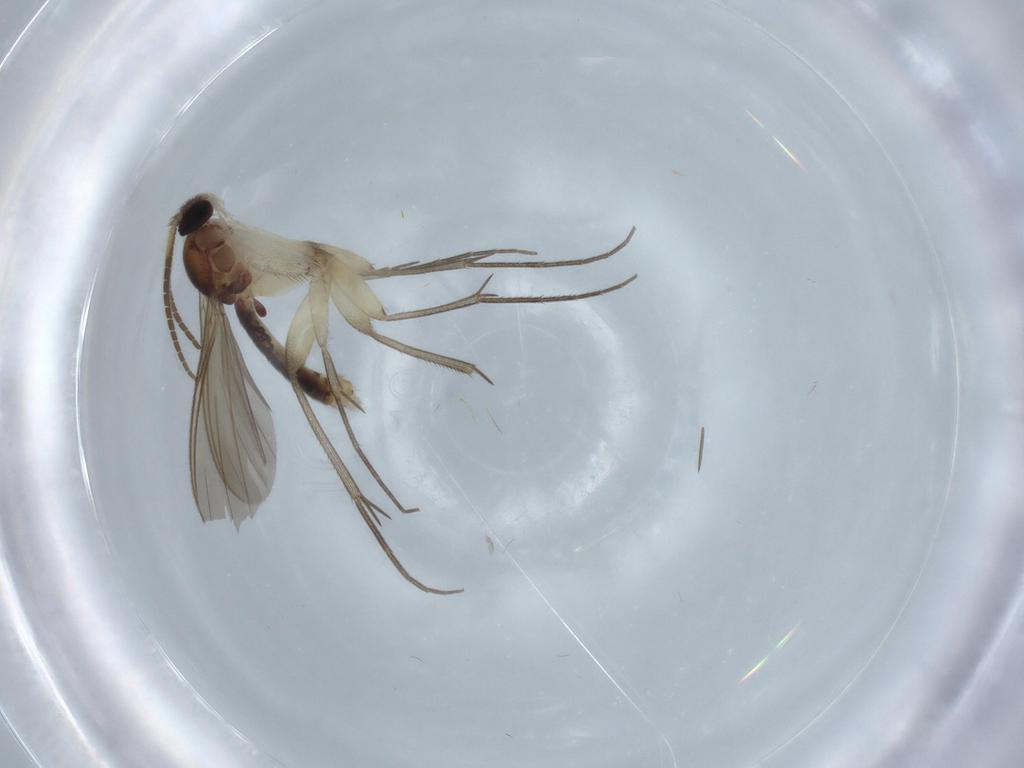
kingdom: Animalia
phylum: Arthropoda
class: Insecta
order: Diptera
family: Mycetophilidae
